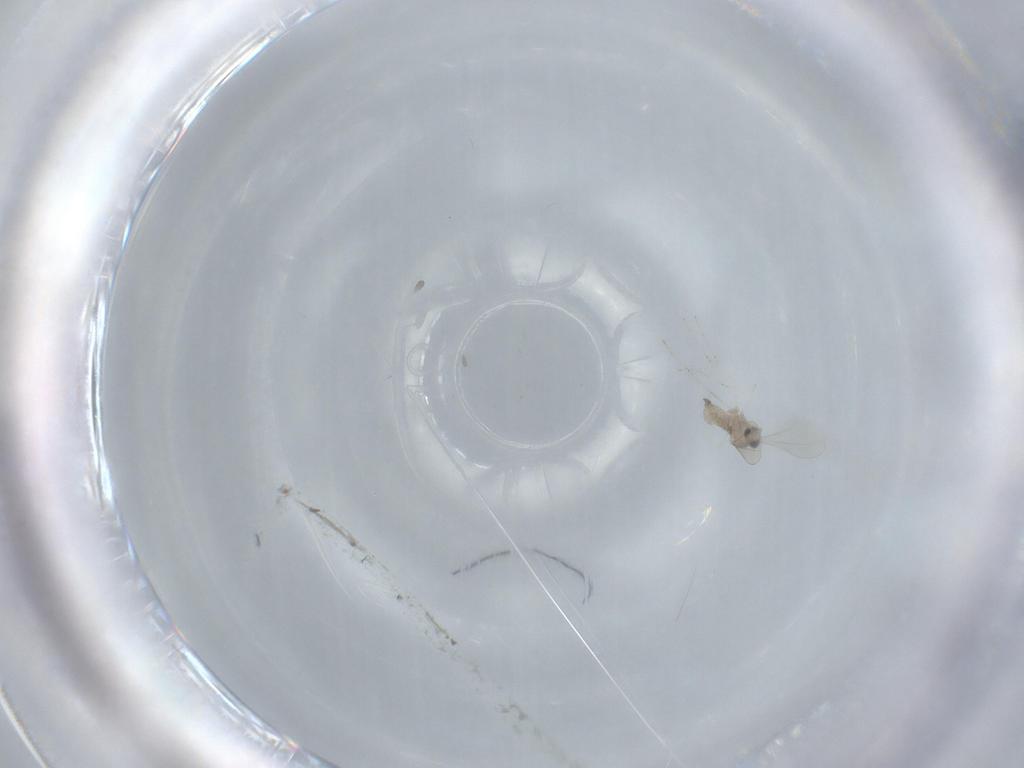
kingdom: Animalia
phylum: Arthropoda
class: Insecta
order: Diptera
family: Cecidomyiidae
